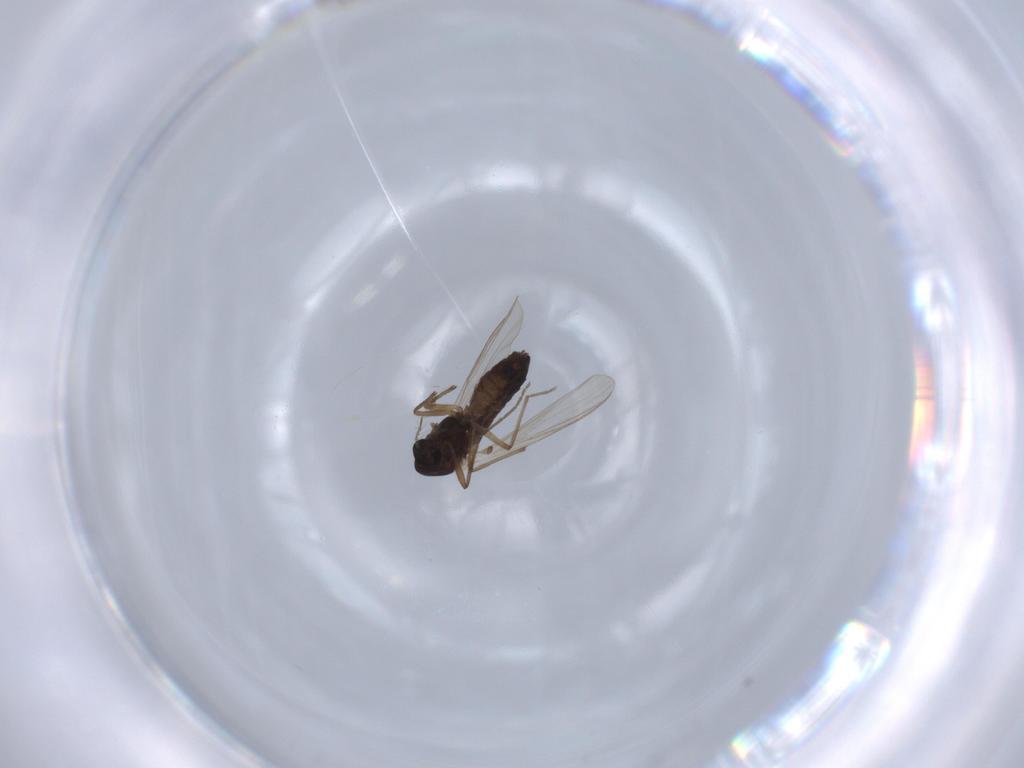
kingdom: Animalia
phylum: Arthropoda
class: Insecta
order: Diptera
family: Chironomidae
